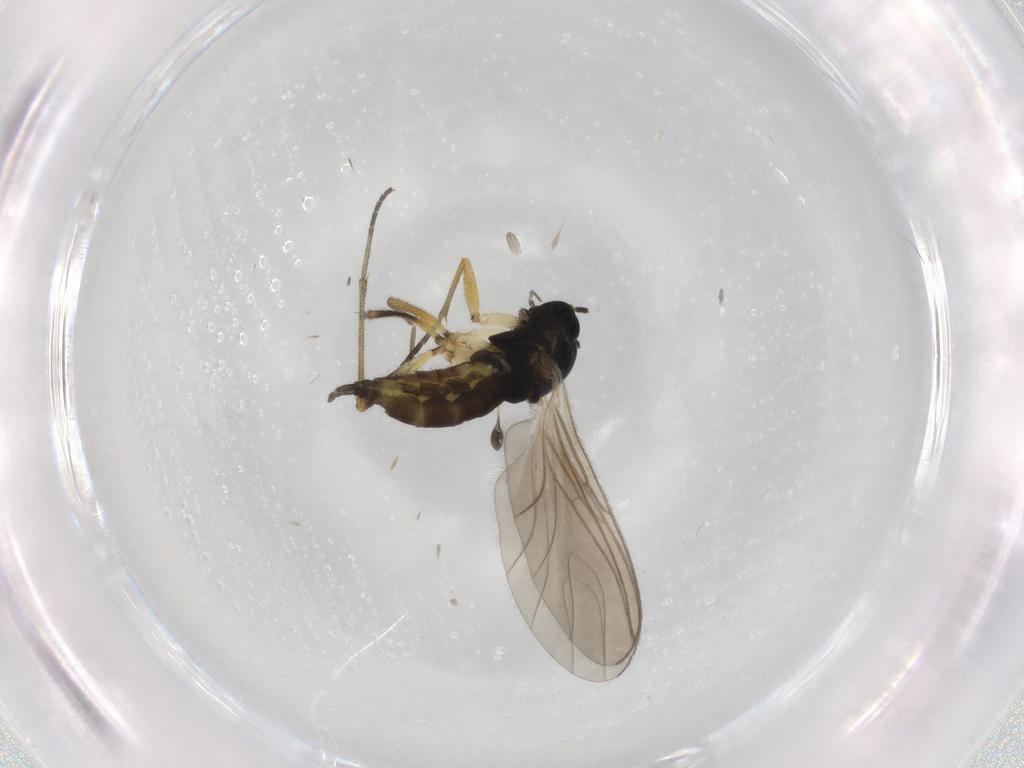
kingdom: Animalia
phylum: Arthropoda
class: Insecta
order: Diptera
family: Sciaridae
